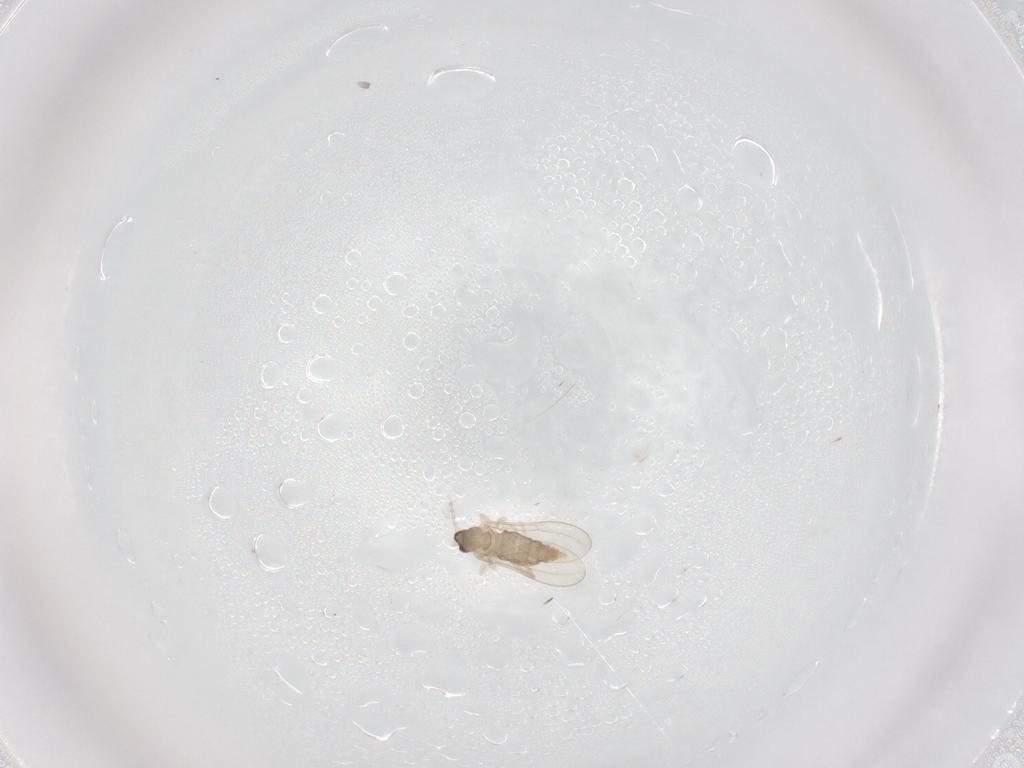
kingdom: Animalia
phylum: Arthropoda
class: Insecta
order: Diptera
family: Cecidomyiidae
